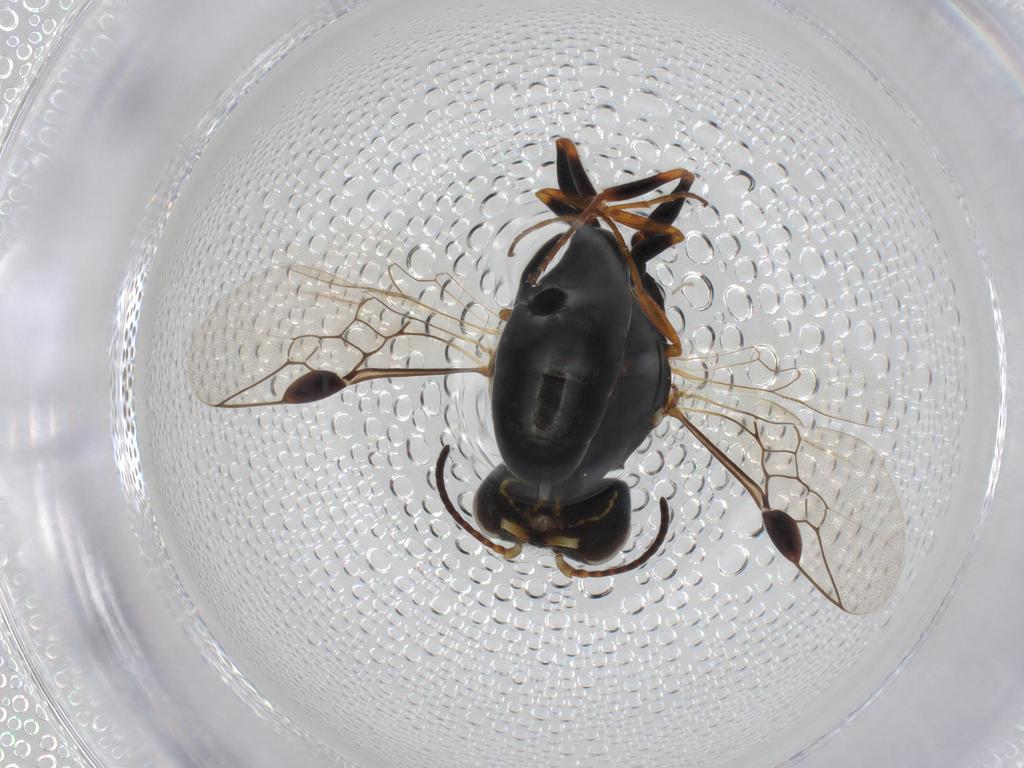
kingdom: Animalia
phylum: Arthropoda
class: Insecta
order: Hymenoptera
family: Crabronidae
